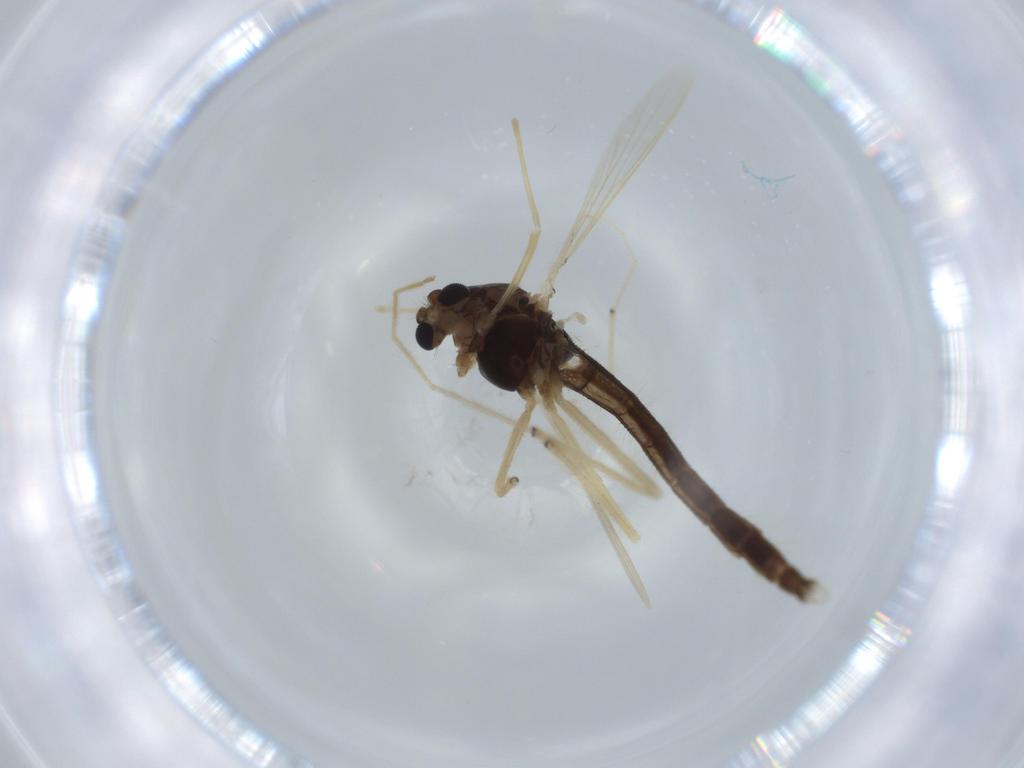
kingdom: Animalia
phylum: Arthropoda
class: Insecta
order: Diptera
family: Chironomidae
